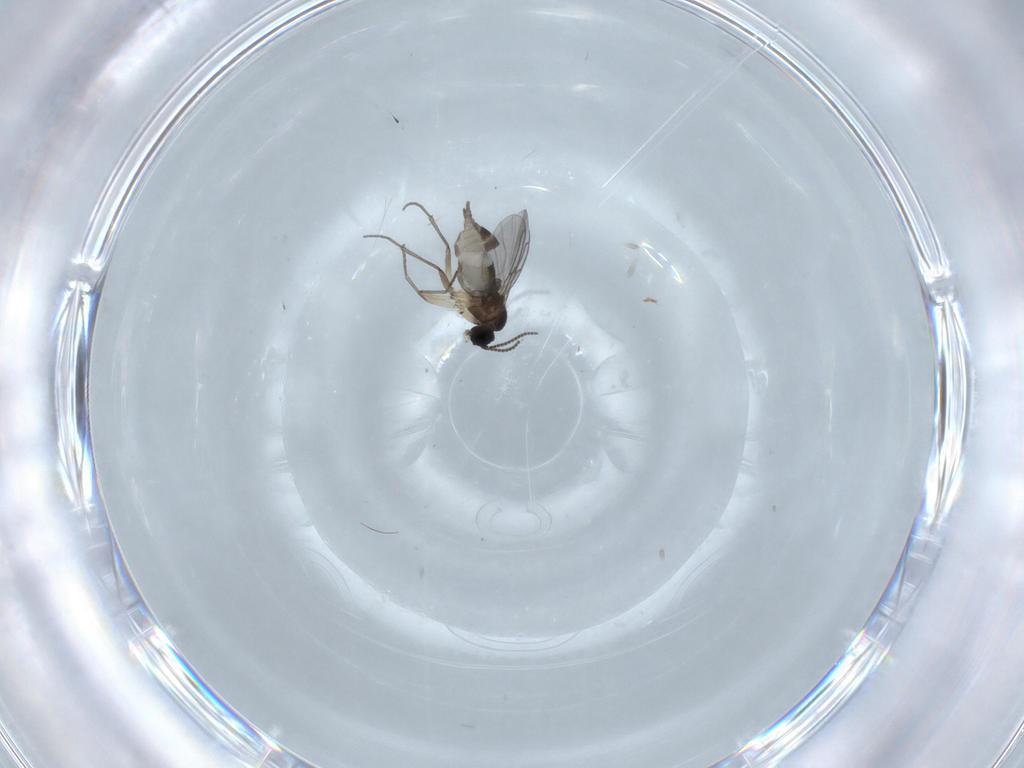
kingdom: Animalia
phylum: Arthropoda
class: Insecta
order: Diptera
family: Sciaridae
